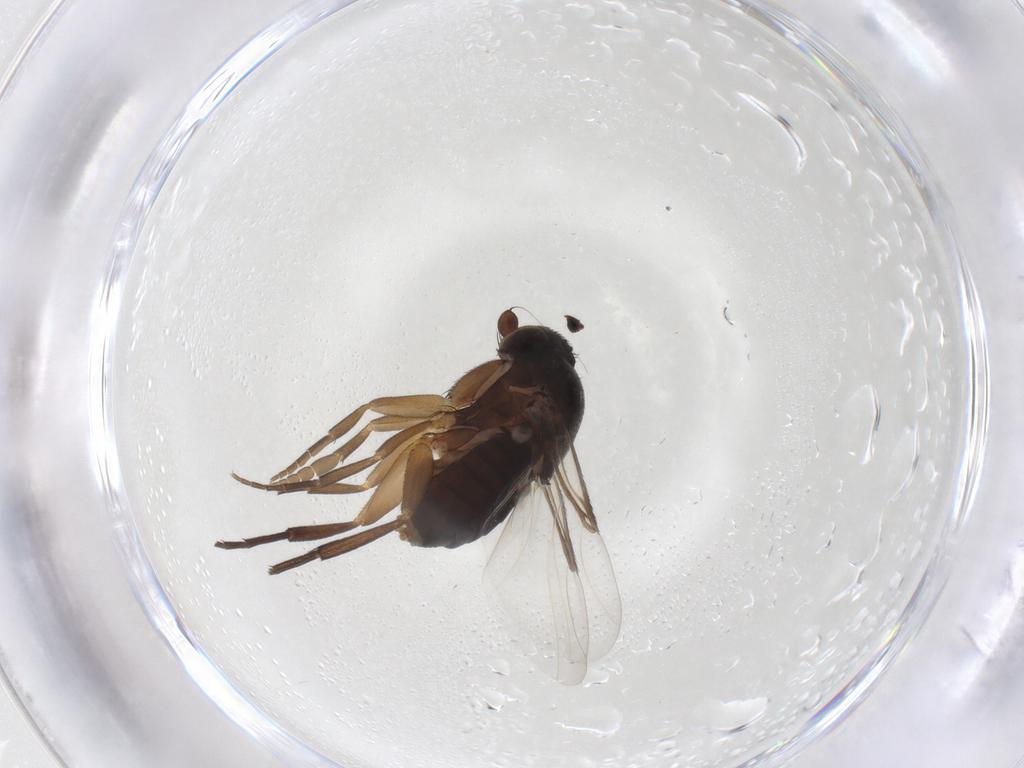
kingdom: Animalia
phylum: Arthropoda
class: Insecta
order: Diptera
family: Phoridae
